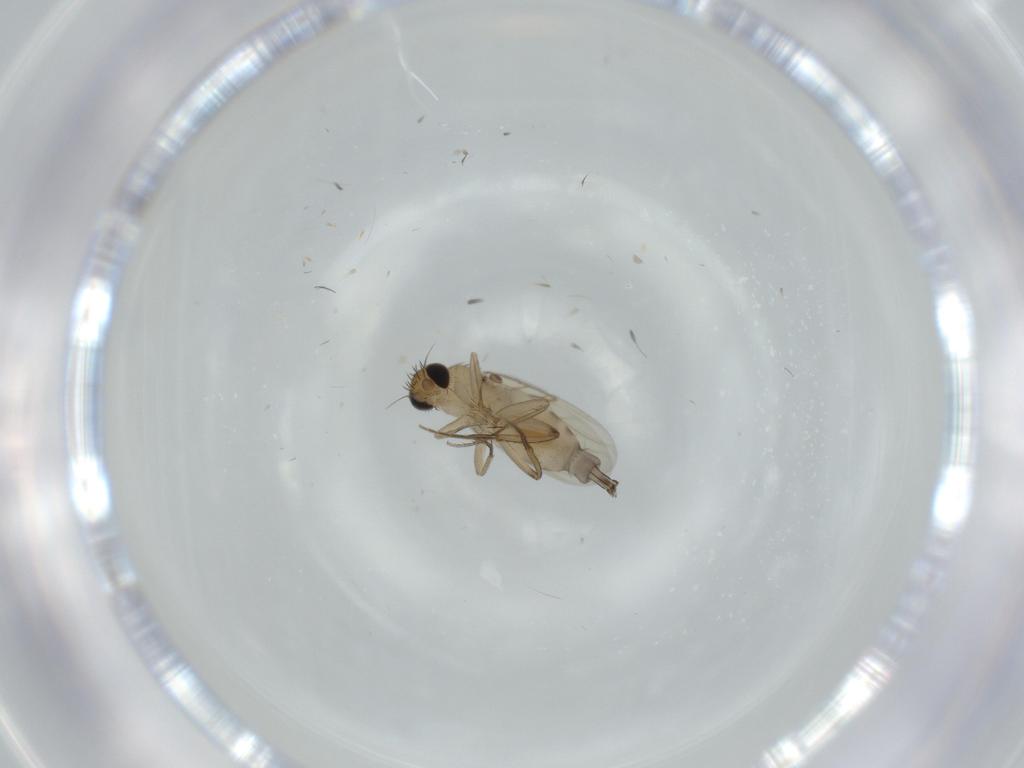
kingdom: Animalia
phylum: Arthropoda
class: Insecta
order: Diptera
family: Phoridae
